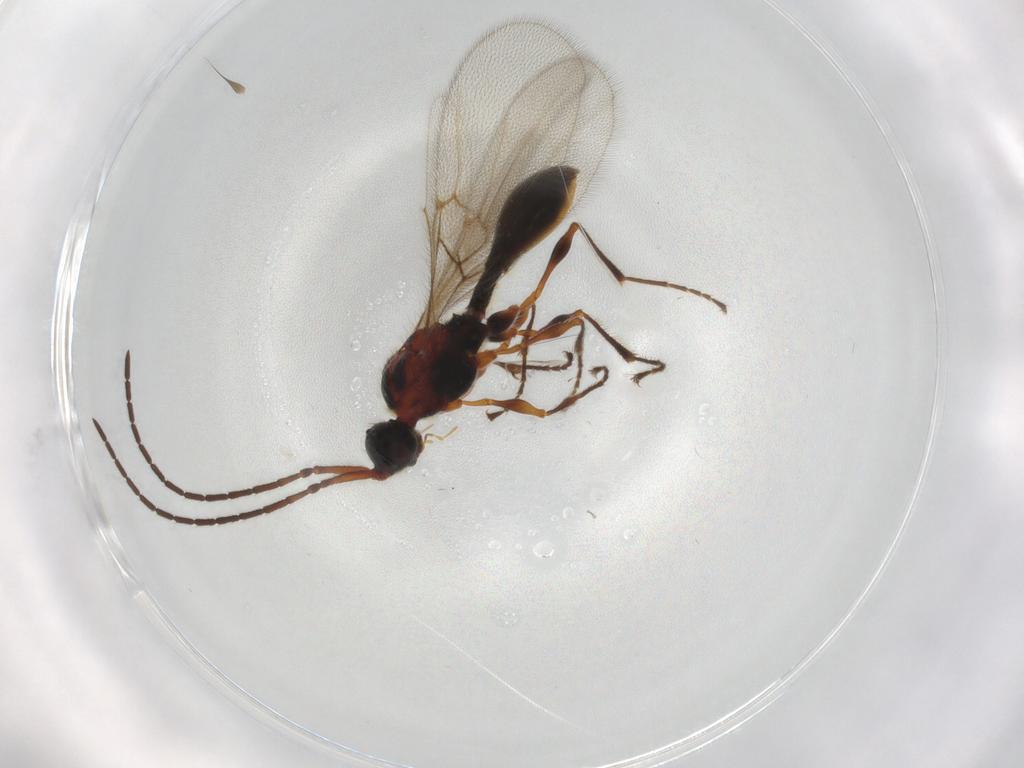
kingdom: Animalia
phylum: Arthropoda
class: Insecta
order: Hymenoptera
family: Diapriidae
